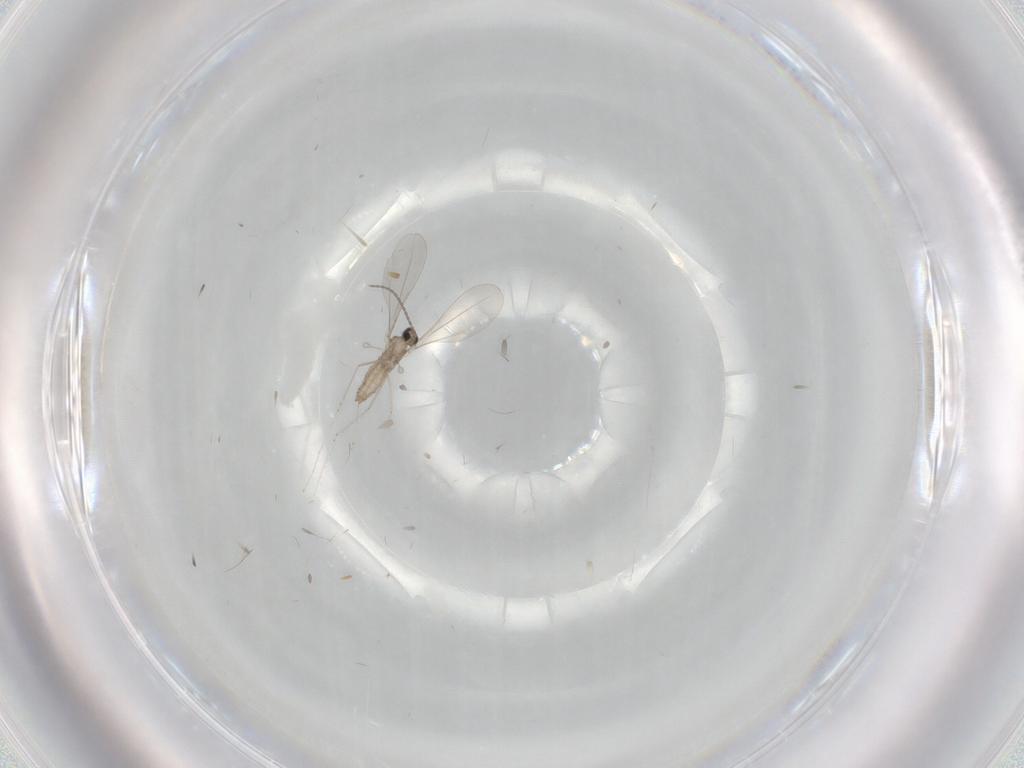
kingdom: Animalia
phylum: Arthropoda
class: Insecta
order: Diptera
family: Cecidomyiidae
